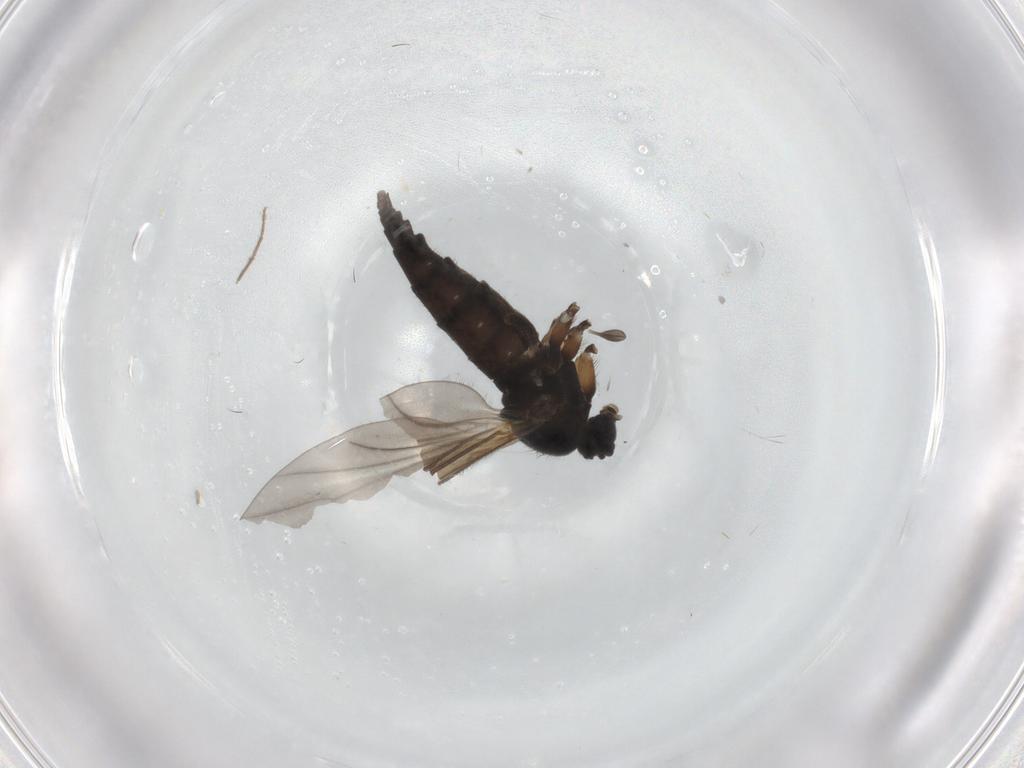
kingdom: Animalia
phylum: Arthropoda
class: Insecta
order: Diptera
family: Sciaridae
